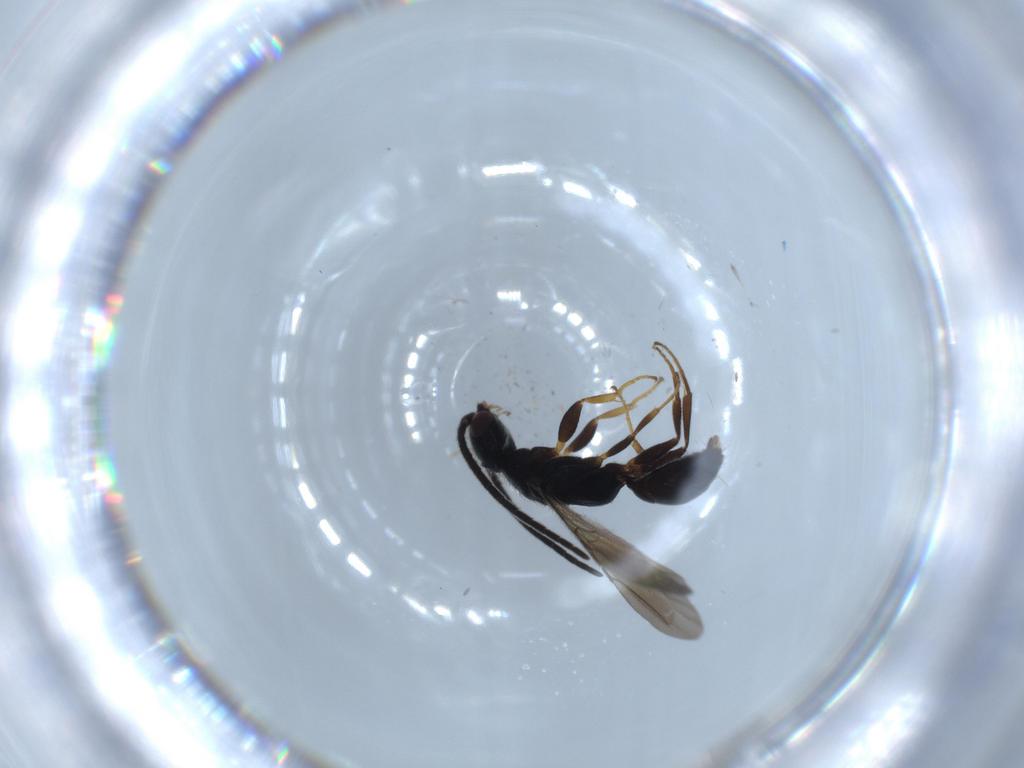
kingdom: Animalia
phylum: Arthropoda
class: Insecta
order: Hymenoptera
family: Bethylidae
